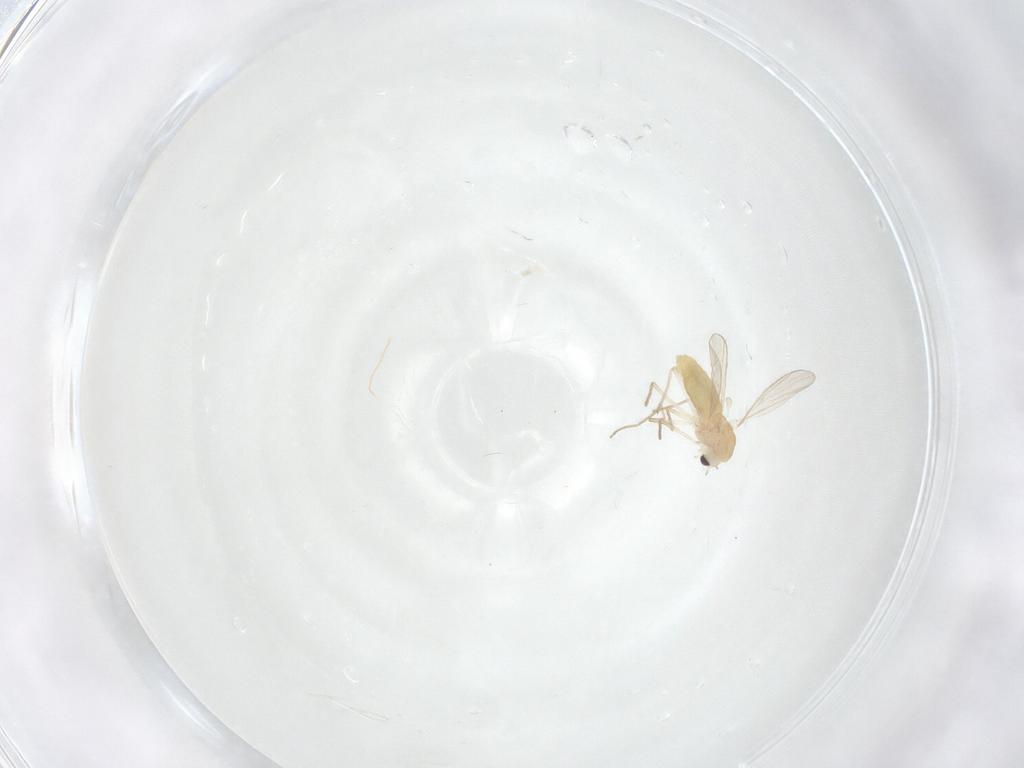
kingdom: Animalia
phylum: Arthropoda
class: Insecta
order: Diptera
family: Chironomidae
